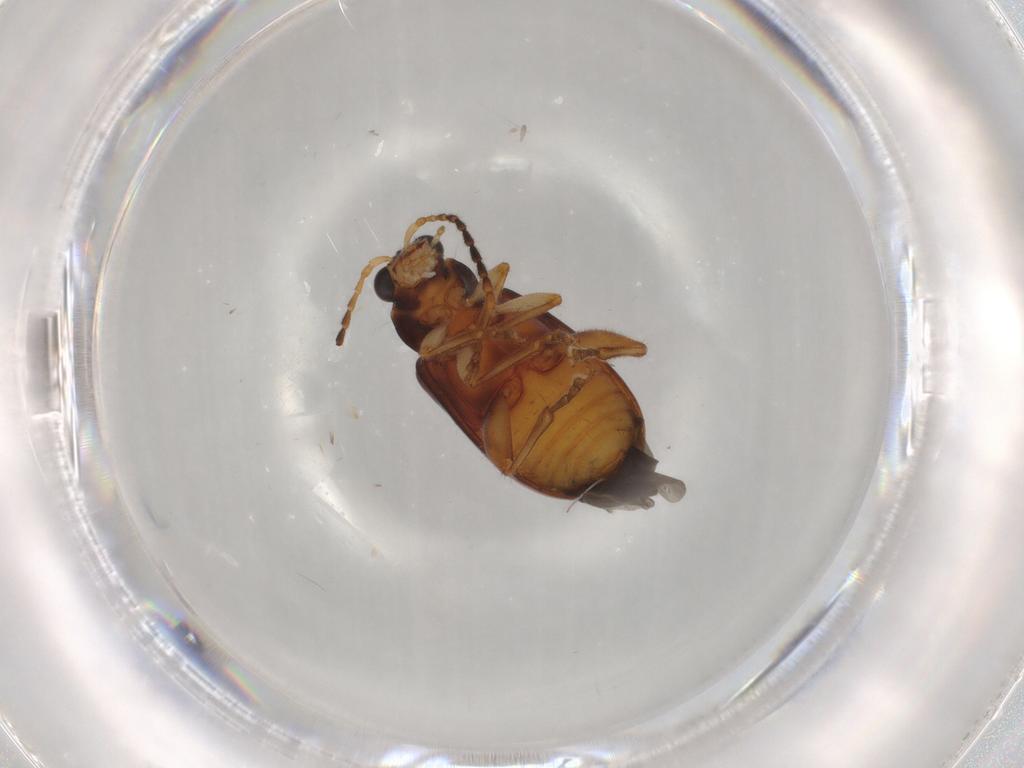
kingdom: Animalia
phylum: Arthropoda
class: Insecta
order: Coleoptera
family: Chrysomelidae
